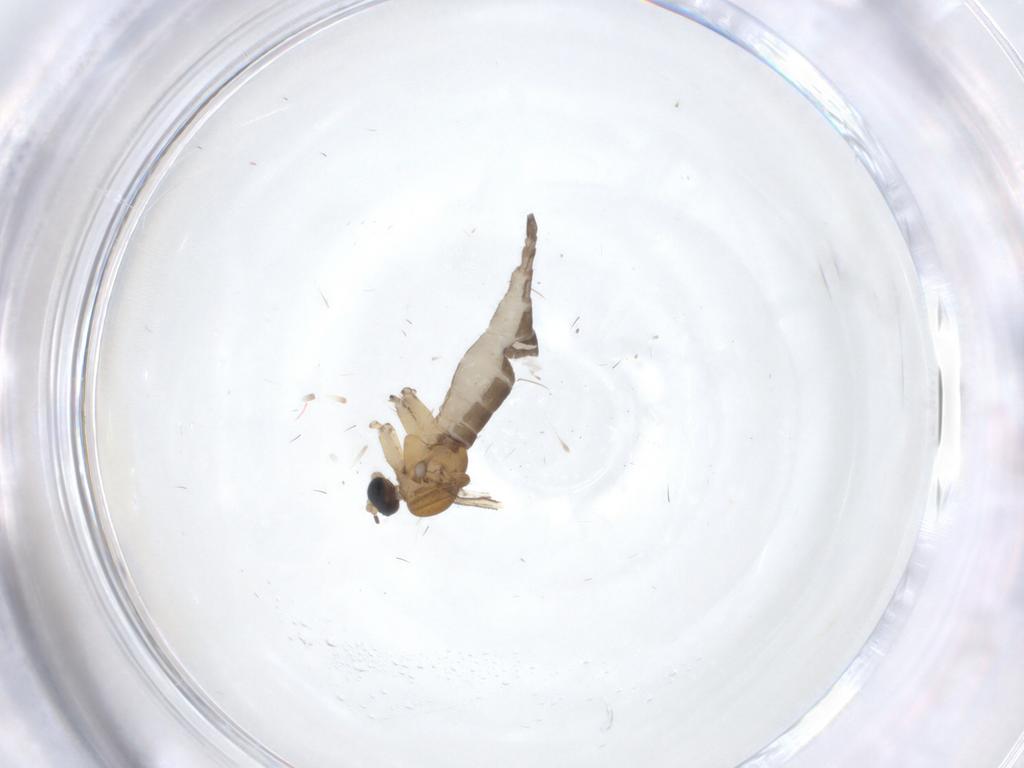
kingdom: Animalia
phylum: Arthropoda
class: Insecta
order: Diptera
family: Sciaridae
